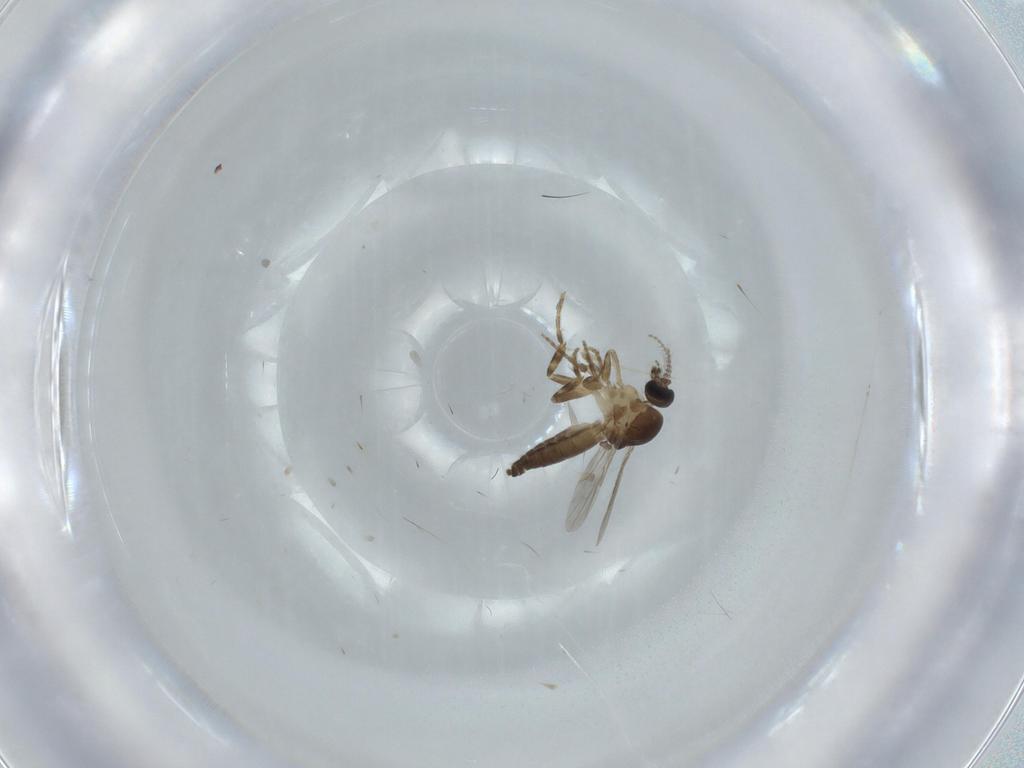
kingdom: Animalia
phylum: Arthropoda
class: Insecta
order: Diptera
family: Ceratopogonidae
